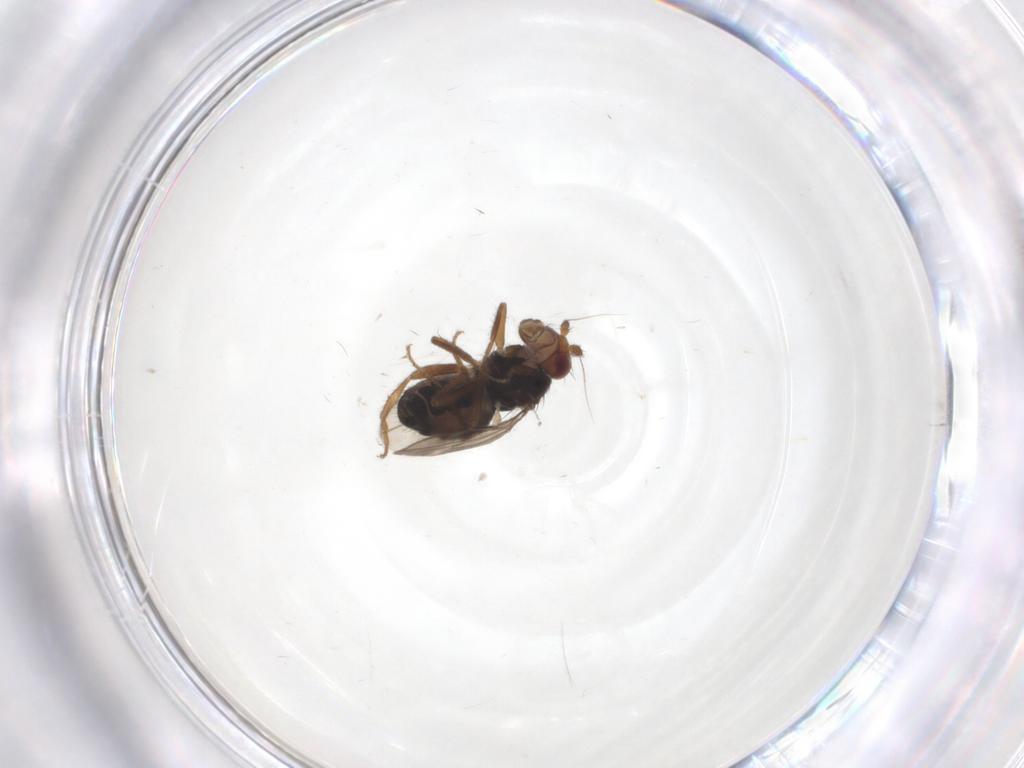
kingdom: Animalia
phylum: Arthropoda
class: Insecta
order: Diptera
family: Sphaeroceridae
